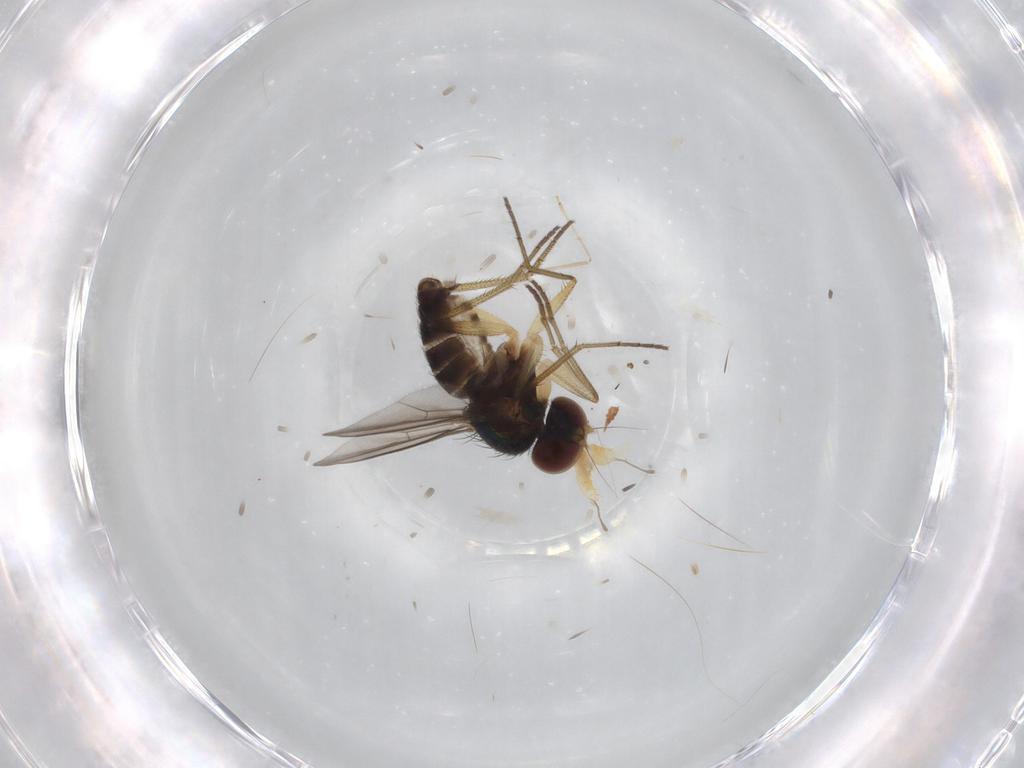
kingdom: Animalia
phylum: Arthropoda
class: Insecta
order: Diptera
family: Dolichopodidae
